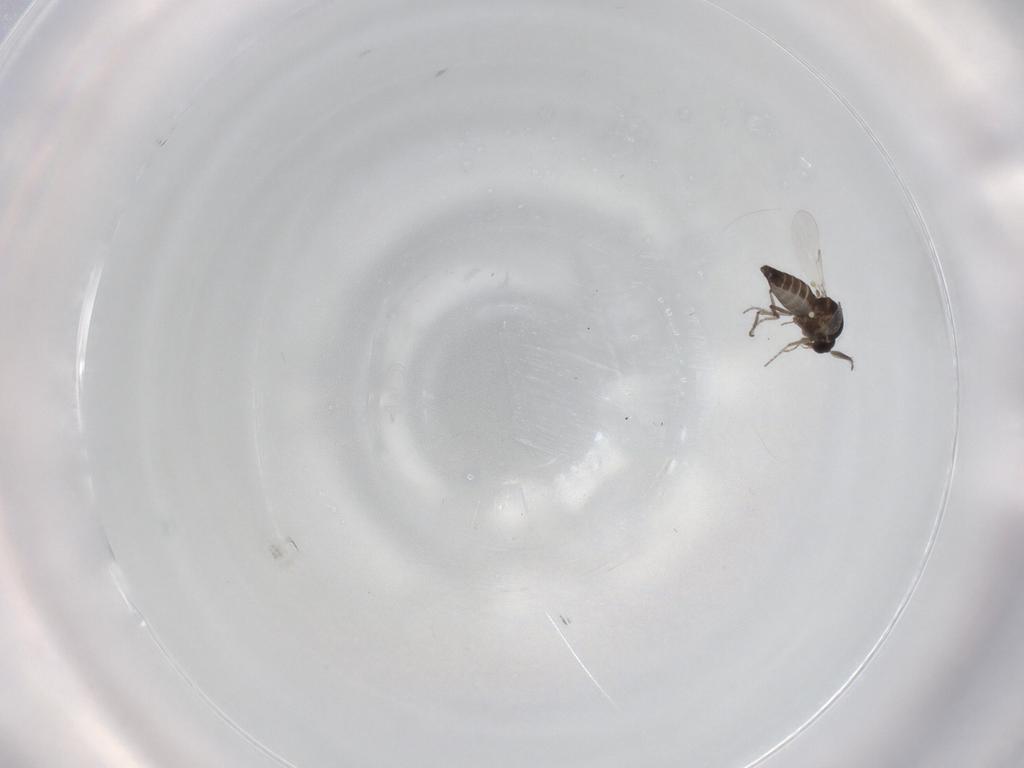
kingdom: Animalia
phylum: Arthropoda
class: Insecta
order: Diptera
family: Ceratopogonidae
